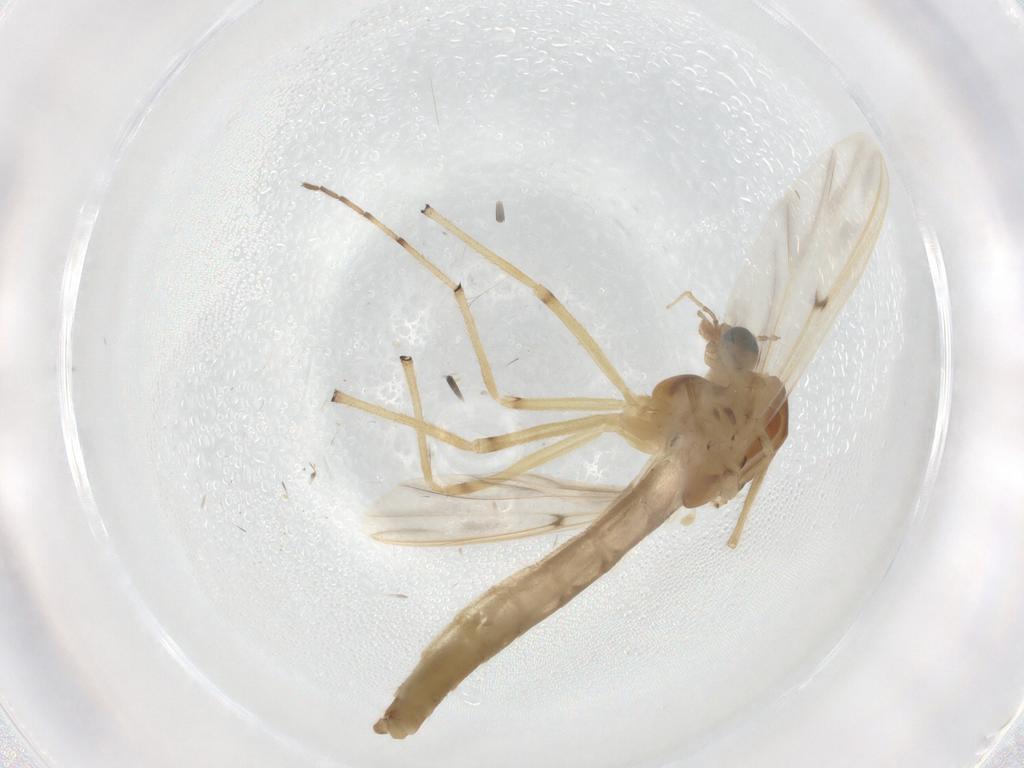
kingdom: Animalia
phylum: Arthropoda
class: Insecta
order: Diptera
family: Chironomidae
